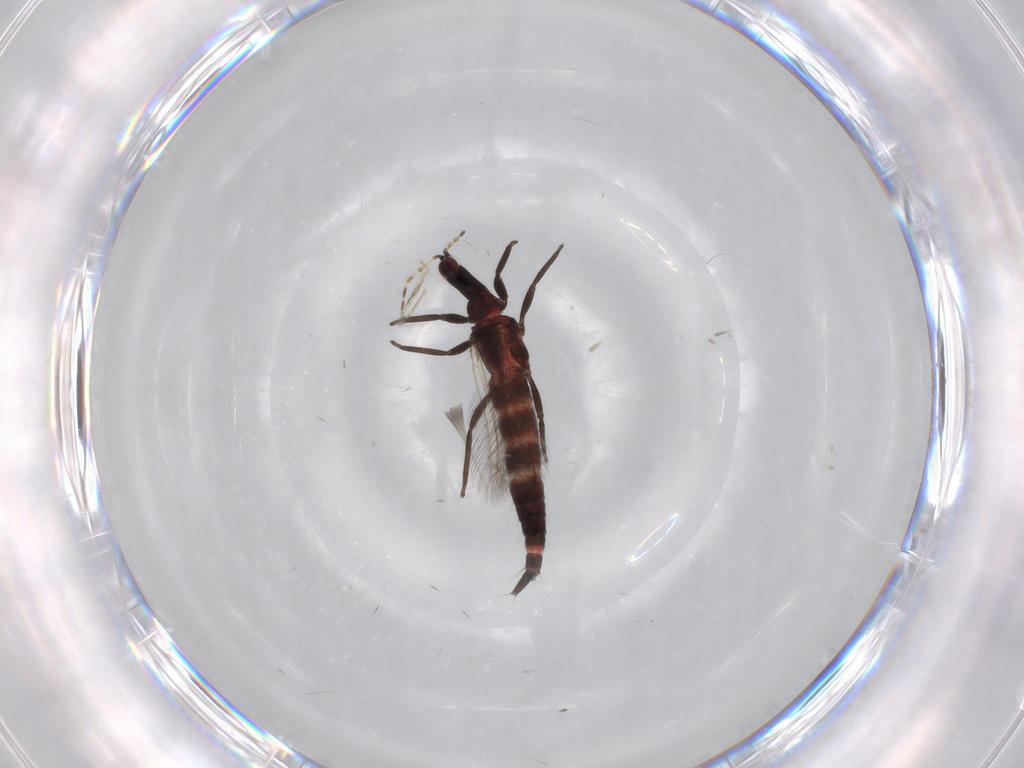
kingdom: Animalia
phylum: Arthropoda
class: Insecta
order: Thysanoptera
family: Phlaeothripidae
